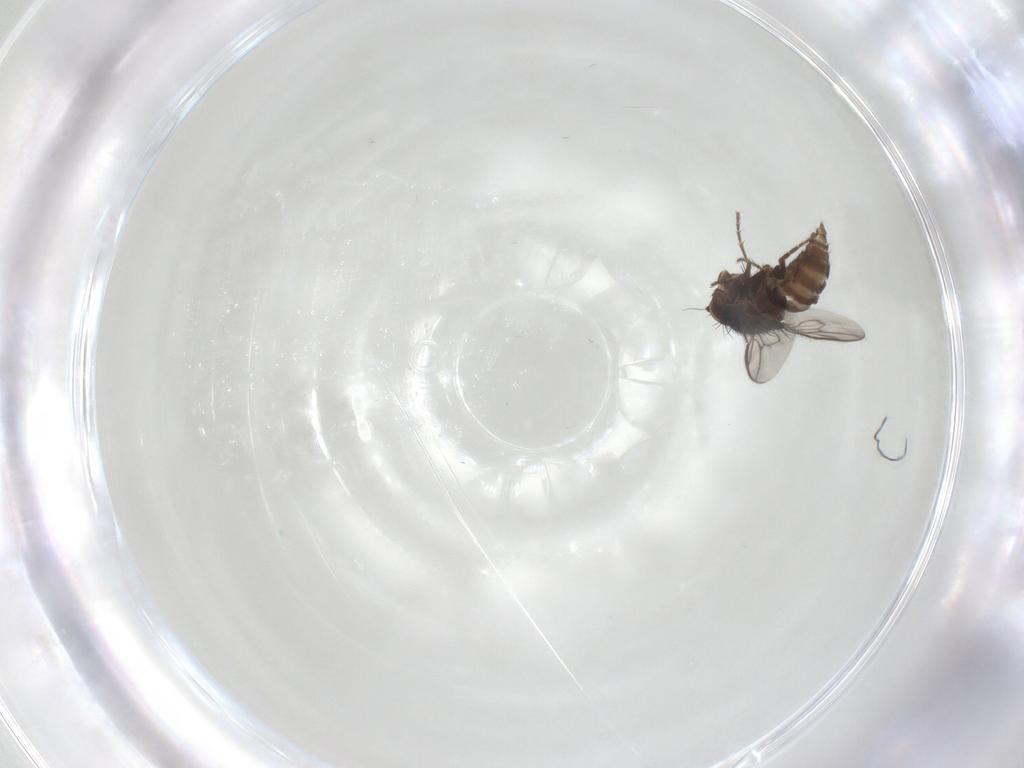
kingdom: Animalia
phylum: Arthropoda
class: Insecta
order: Diptera
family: Sphaeroceridae
